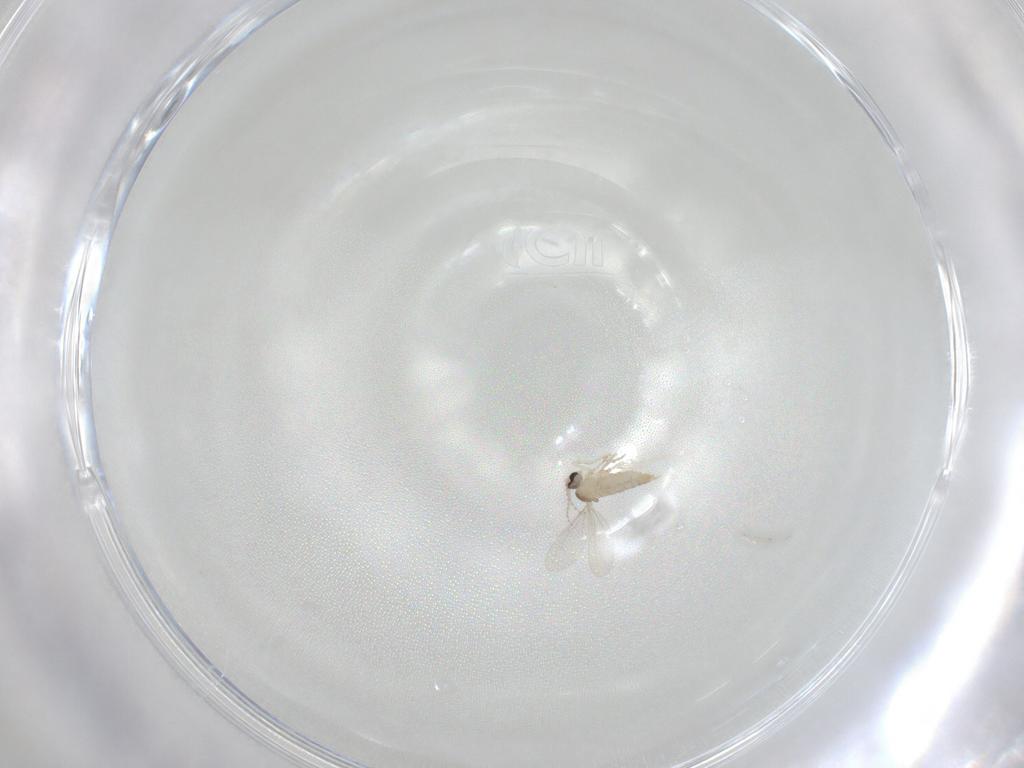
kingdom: Animalia
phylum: Arthropoda
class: Insecta
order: Diptera
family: Cecidomyiidae
